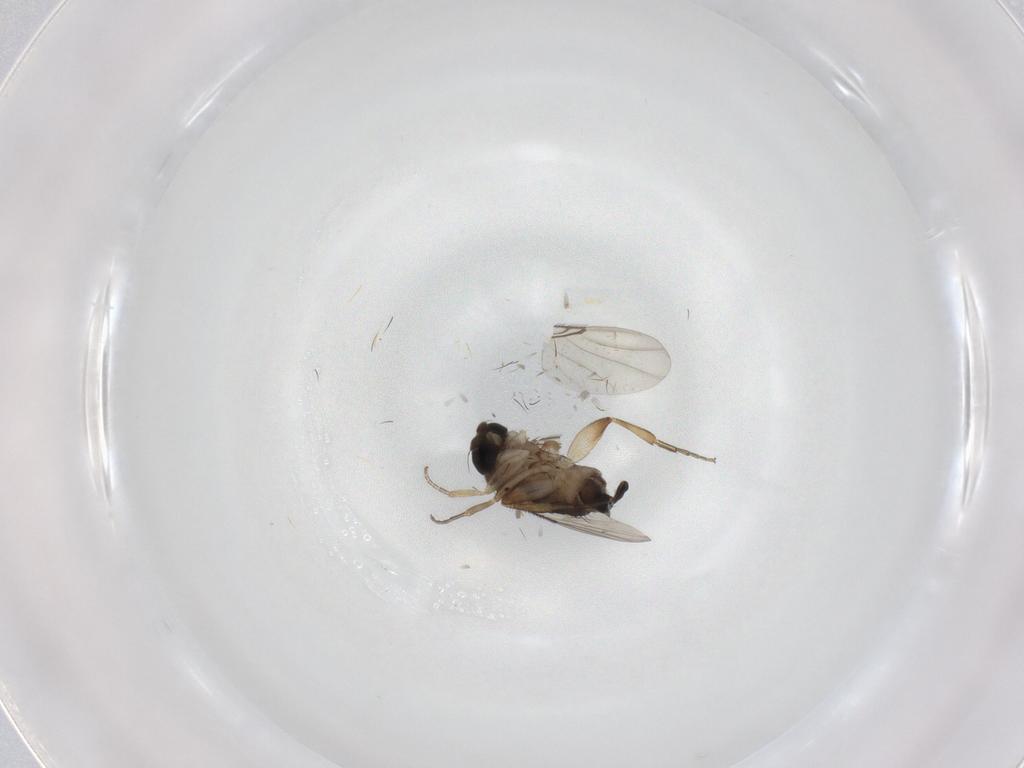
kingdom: Animalia
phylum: Arthropoda
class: Insecta
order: Diptera
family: Phoridae
